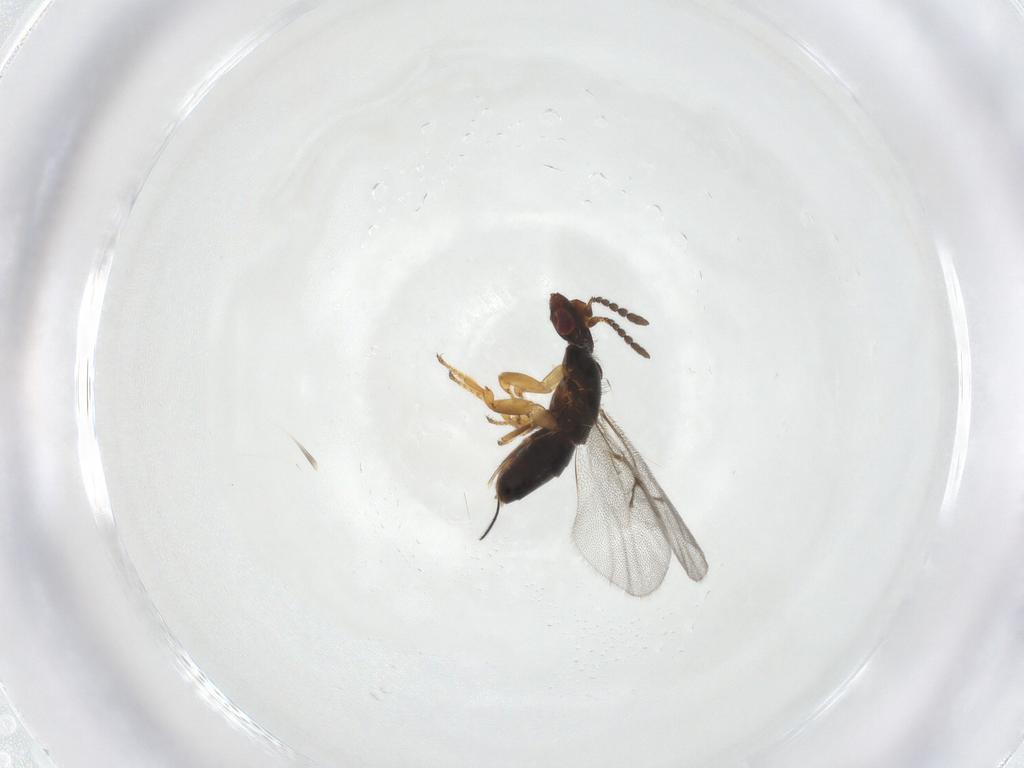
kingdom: Animalia
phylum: Arthropoda
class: Insecta
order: Hymenoptera
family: Agaonidae
